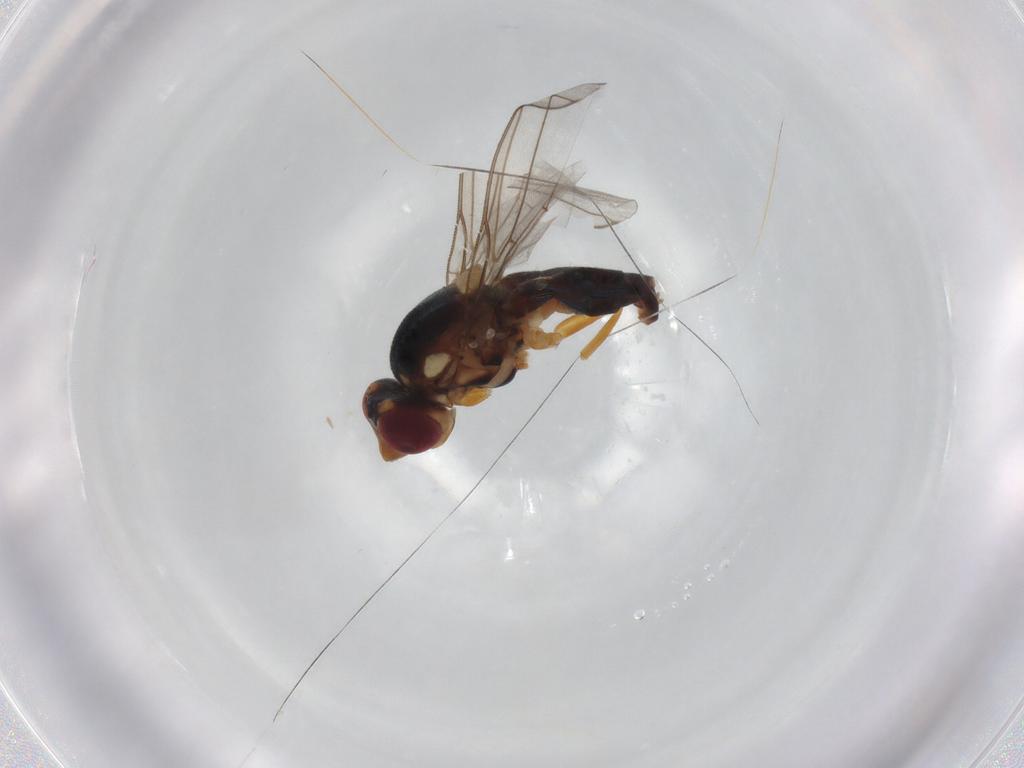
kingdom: Animalia
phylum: Arthropoda
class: Insecta
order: Diptera
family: Chloropidae
